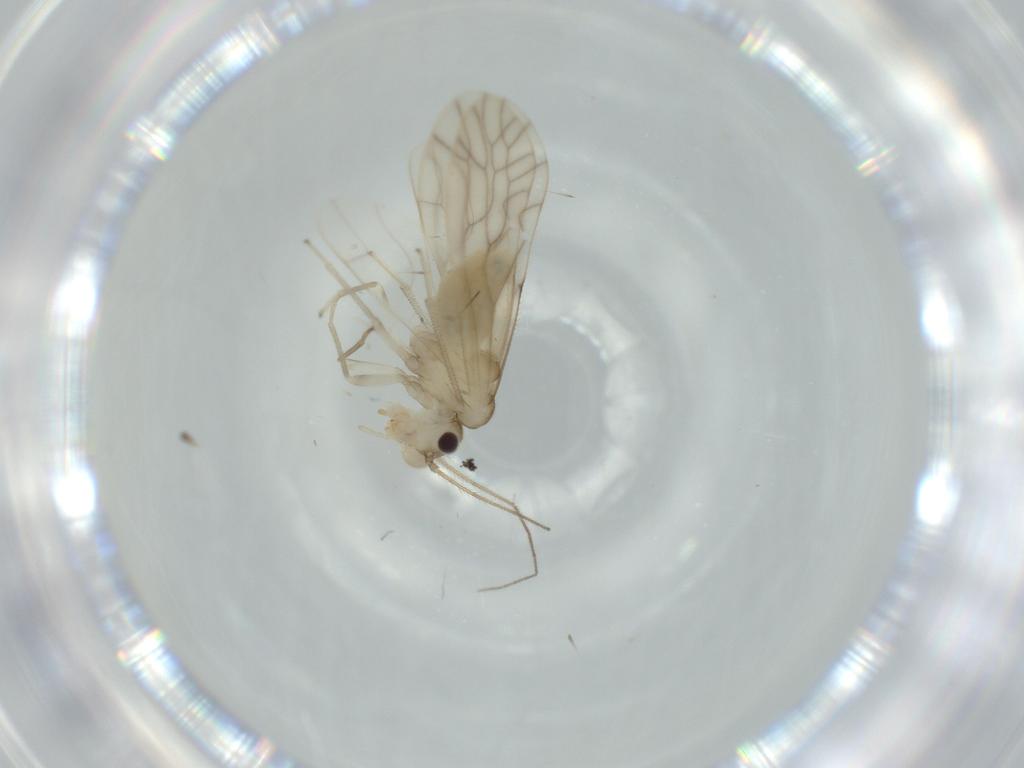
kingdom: Animalia
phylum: Arthropoda
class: Insecta
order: Psocodea
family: Caeciliusidae
